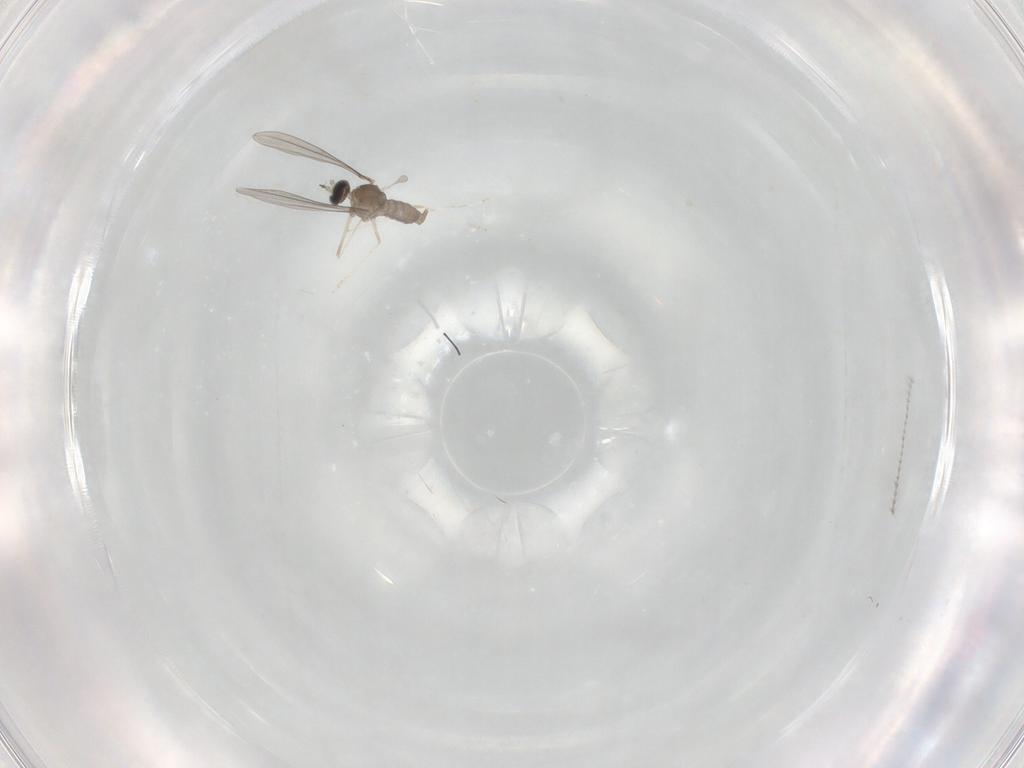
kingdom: Animalia
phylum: Arthropoda
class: Insecta
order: Diptera
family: Cecidomyiidae
